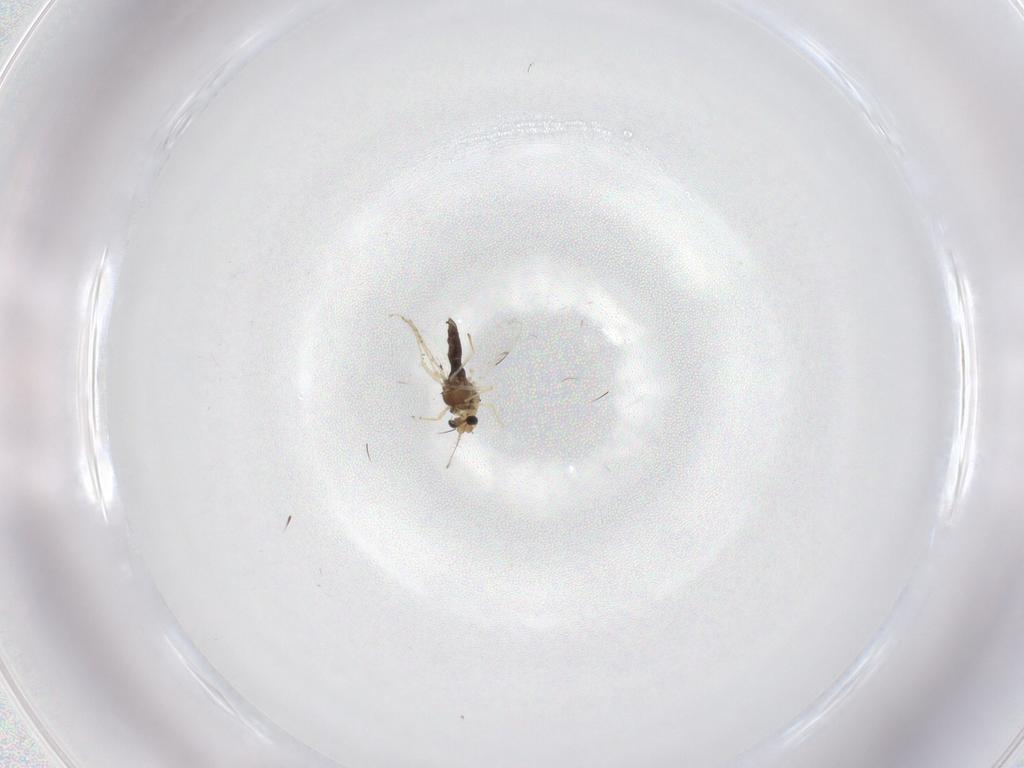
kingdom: Animalia
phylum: Arthropoda
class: Insecta
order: Diptera
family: Chironomidae
